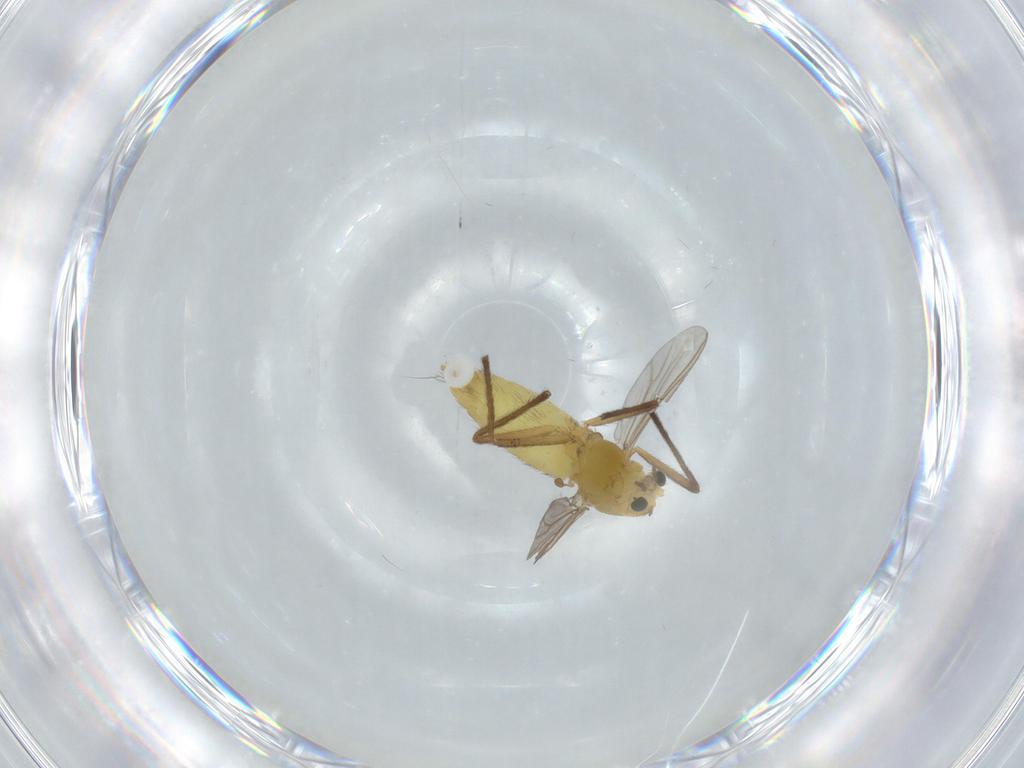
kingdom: Animalia
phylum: Arthropoda
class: Insecta
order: Diptera
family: Chironomidae
